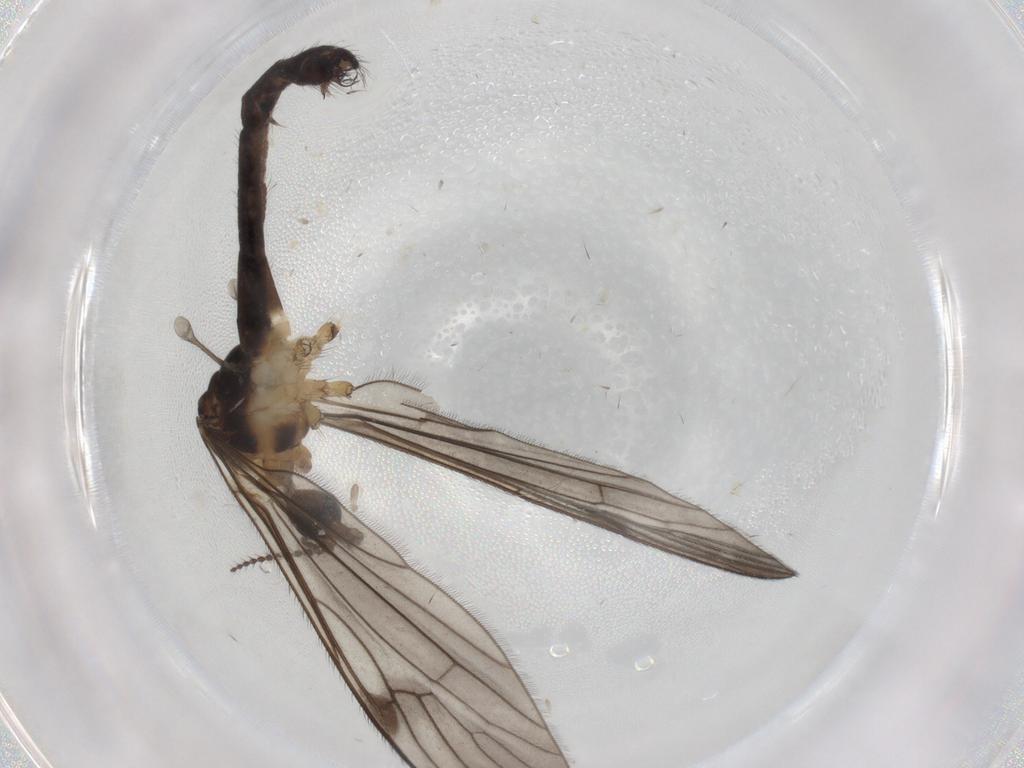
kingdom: Animalia
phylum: Arthropoda
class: Insecta
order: Diptera
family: Limoniidae
